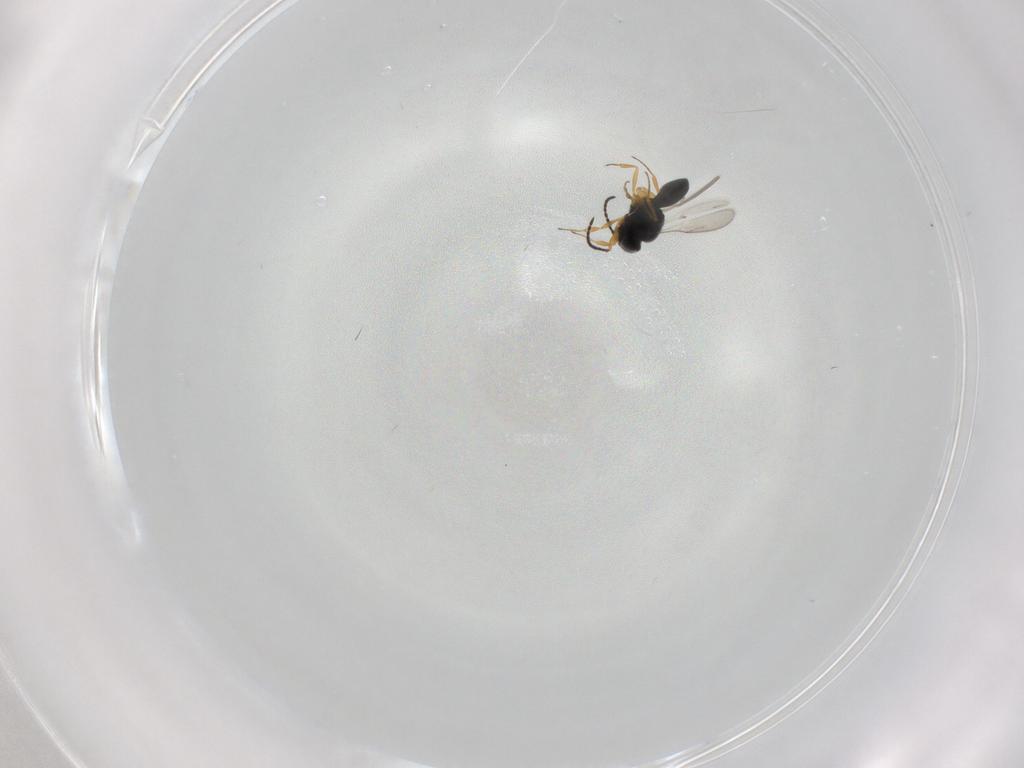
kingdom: Animalia
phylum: Arthropoda
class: Insecta
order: Hymenoptera
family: Scelionidae
